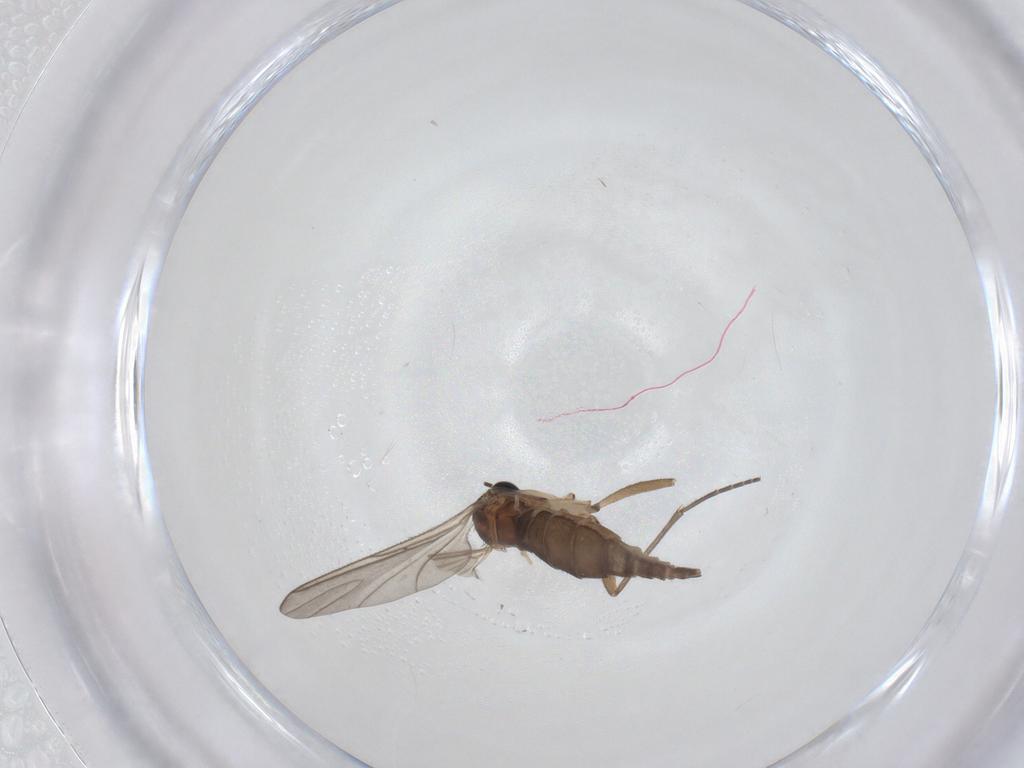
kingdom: Animalia
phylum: Arthropoda
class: Insecta
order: Diptera
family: Sciaridae
